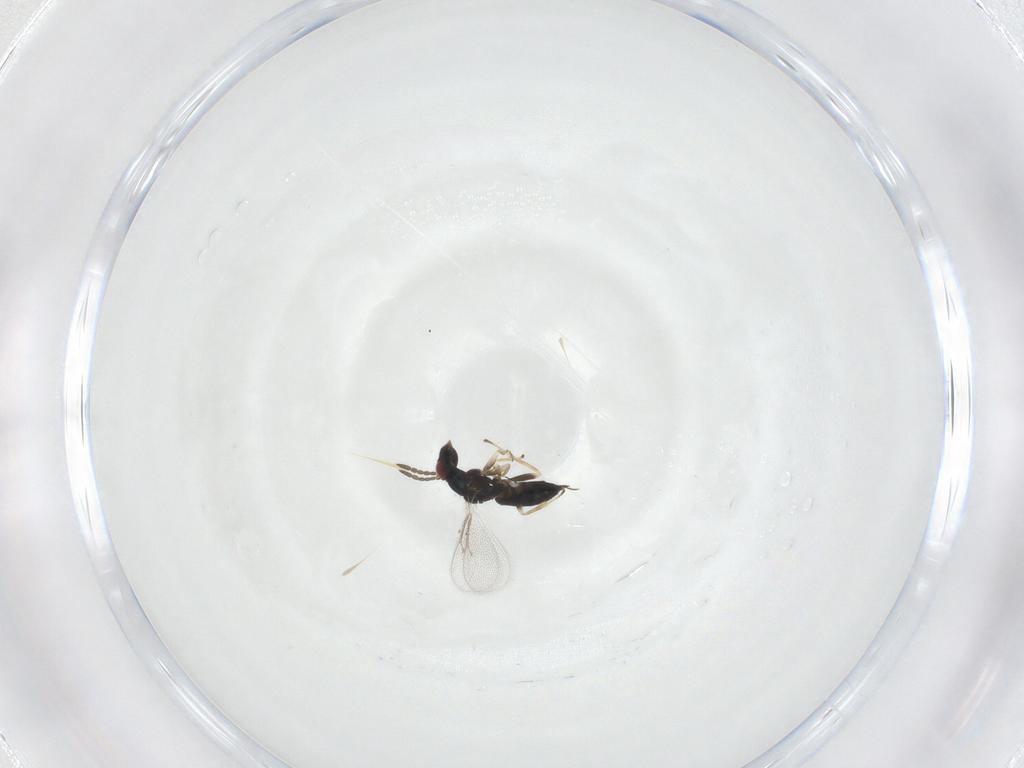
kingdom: Animalia
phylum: Arthropoda
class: Insecta
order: Hymenoptera
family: Eulophidae
